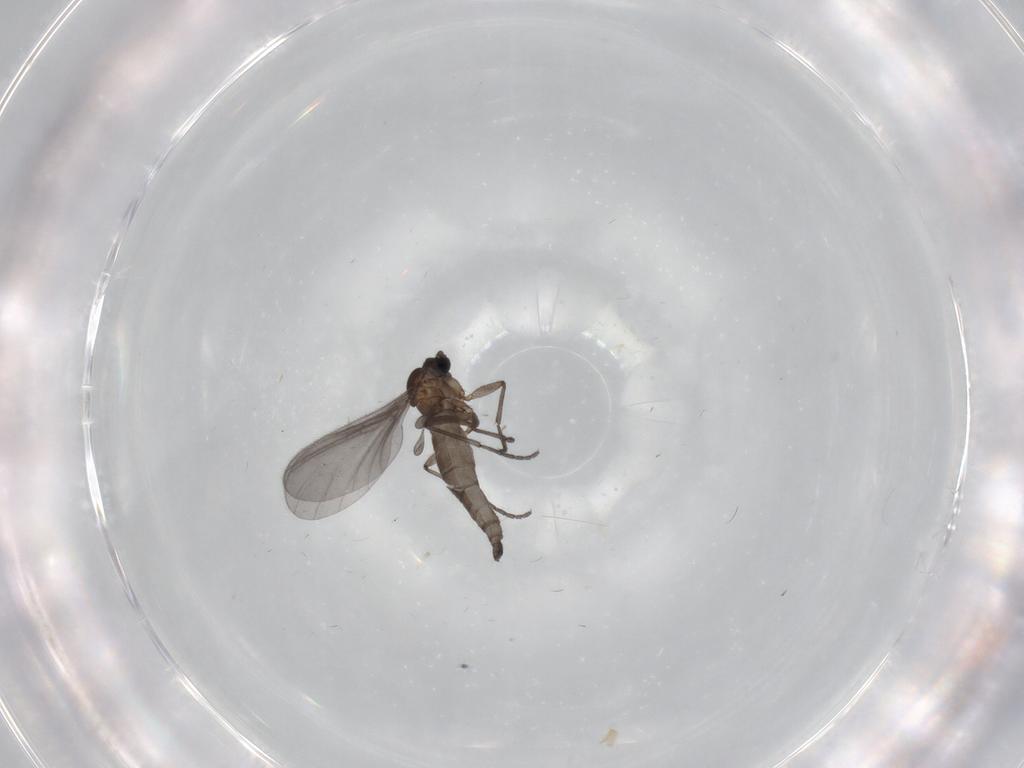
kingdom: Animalia
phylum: Arthropoda
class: Insecta
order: Diptera
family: Sciaridae
